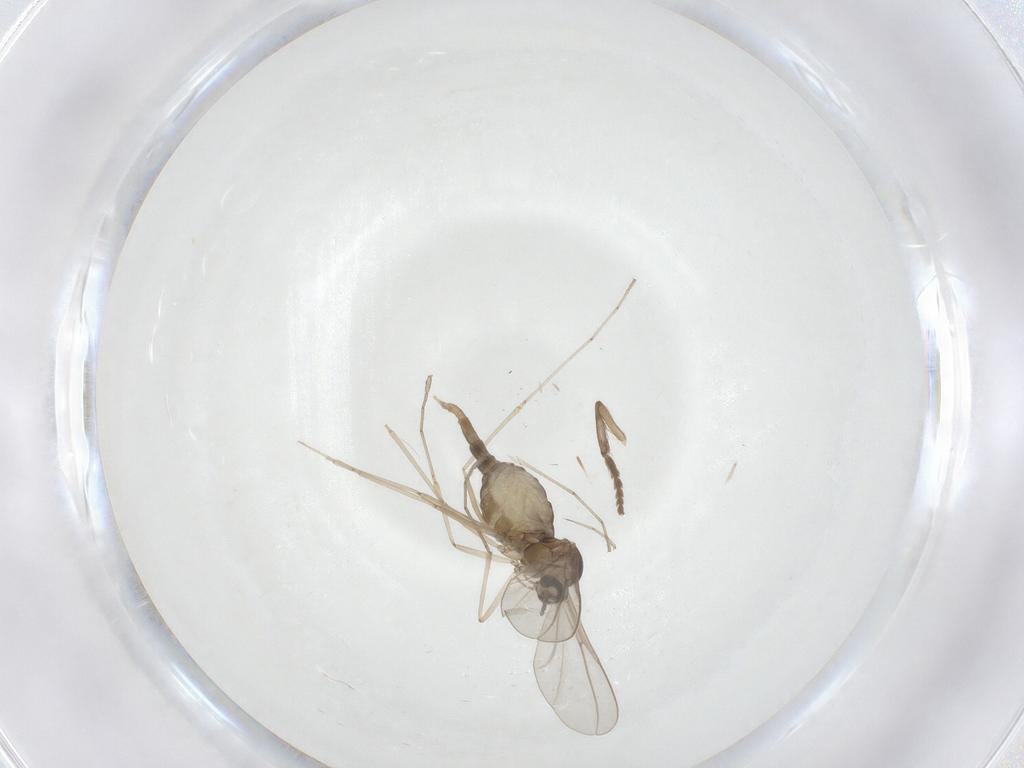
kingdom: Animalia
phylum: Arthropoda
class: Insecta
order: Diptera
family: Psychodidae
